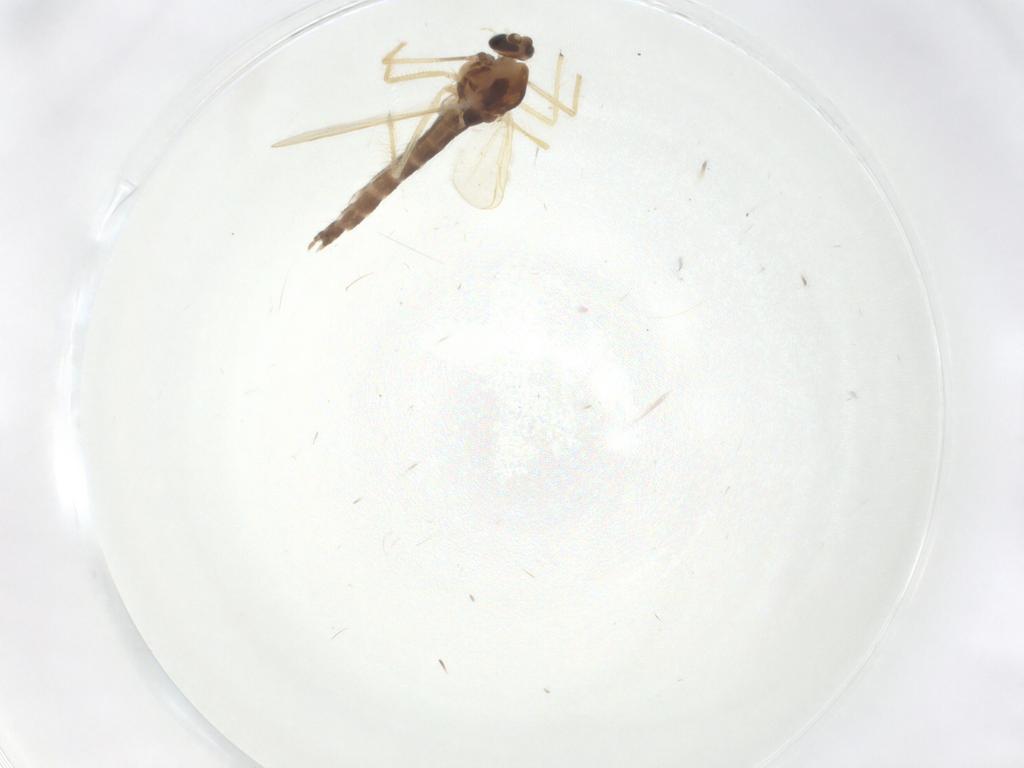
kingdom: Animalia
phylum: Arthropoda
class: Insecta
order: Diptera
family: Chironomidae
